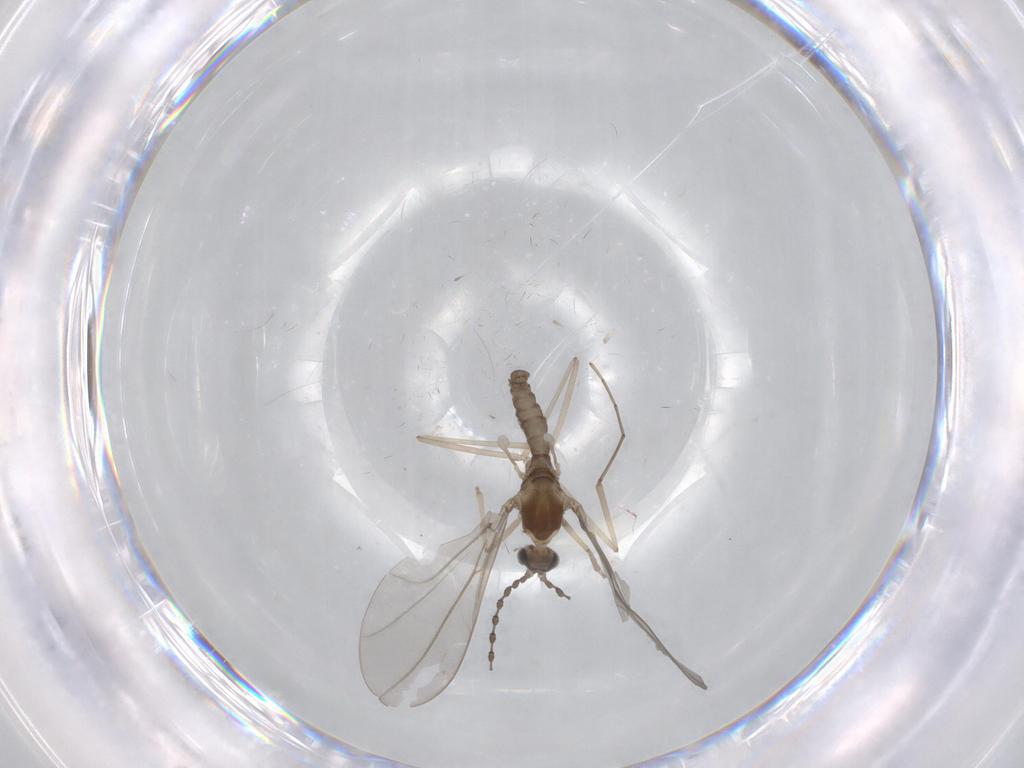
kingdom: Animalia
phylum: Arthropoda
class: Insecta
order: Diptera
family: Cecidomyiidae
